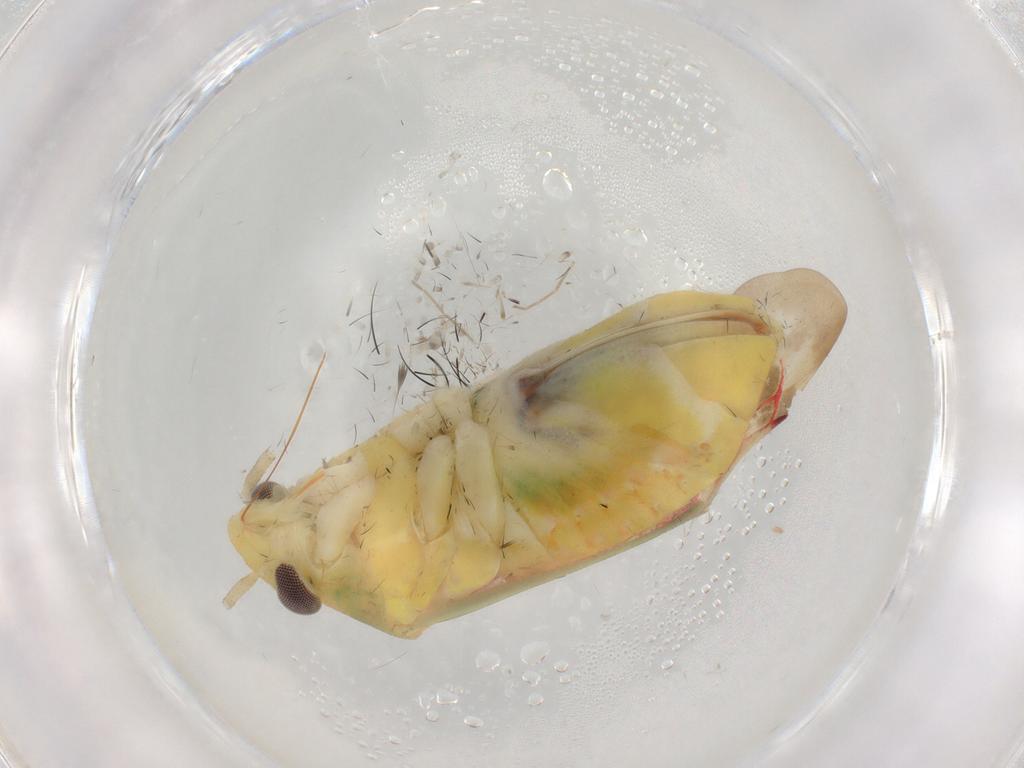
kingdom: Animalia
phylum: Arthropoda
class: Insecta
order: Hemiptera
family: Miridae
